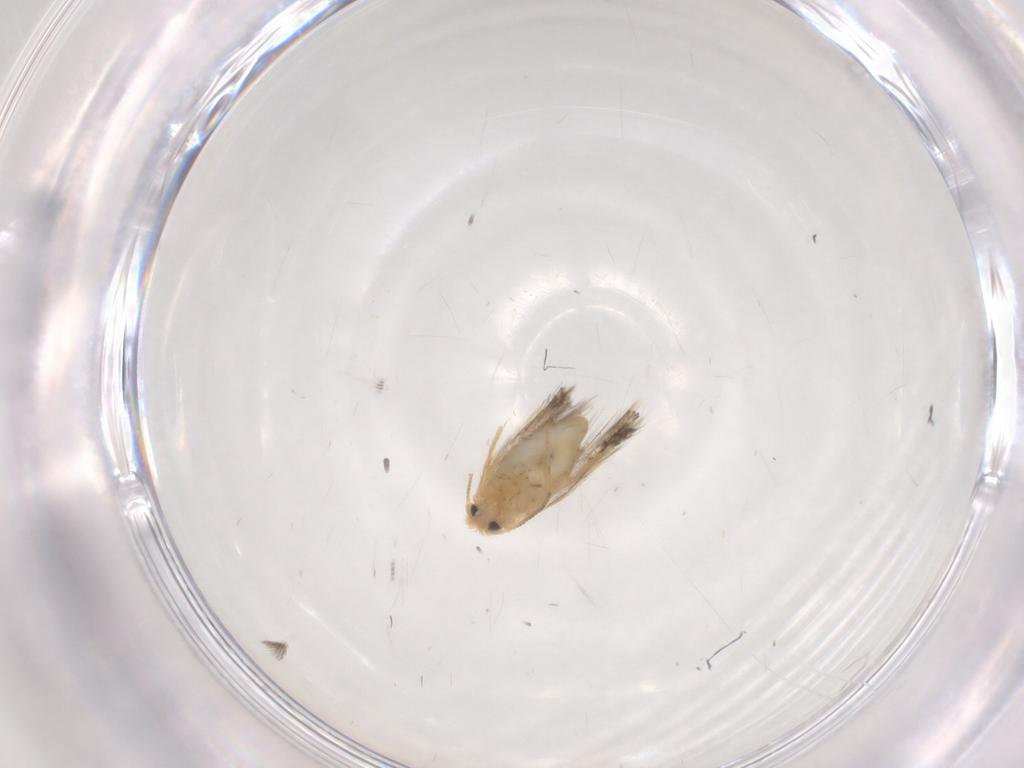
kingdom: Animalia
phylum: Arthropoda
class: Insecta
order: Lepidoptera
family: Nepticulidae
